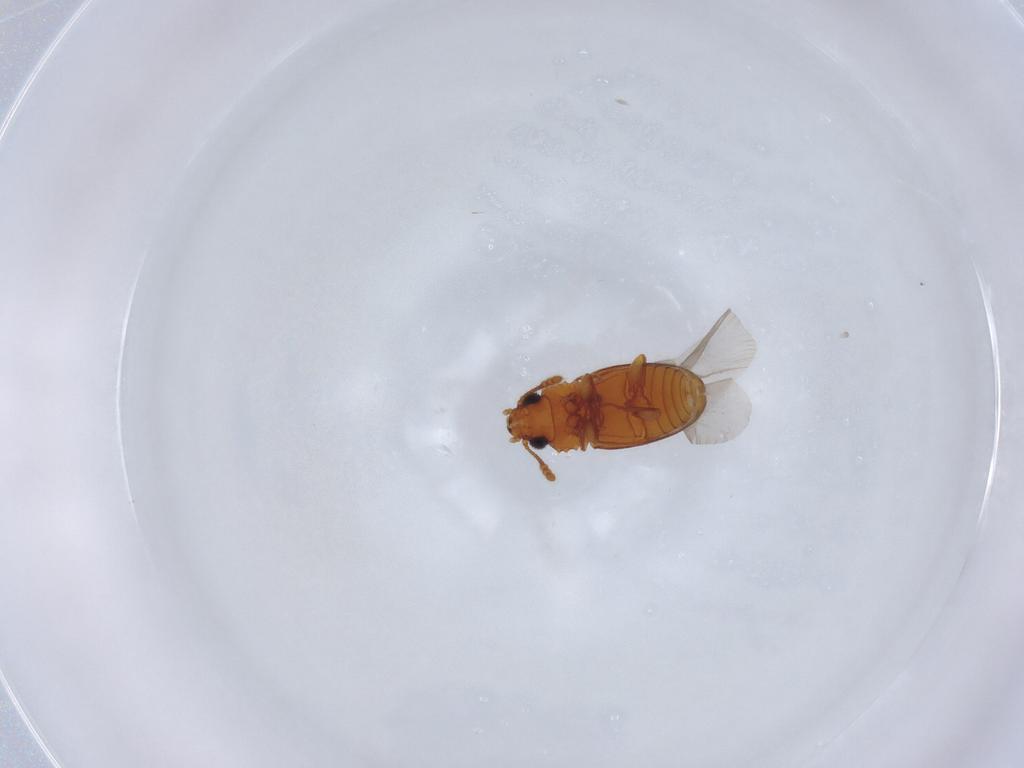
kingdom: Animalia
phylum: Arthropoda
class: Insecta
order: Coleoptera
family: Salpingidae
